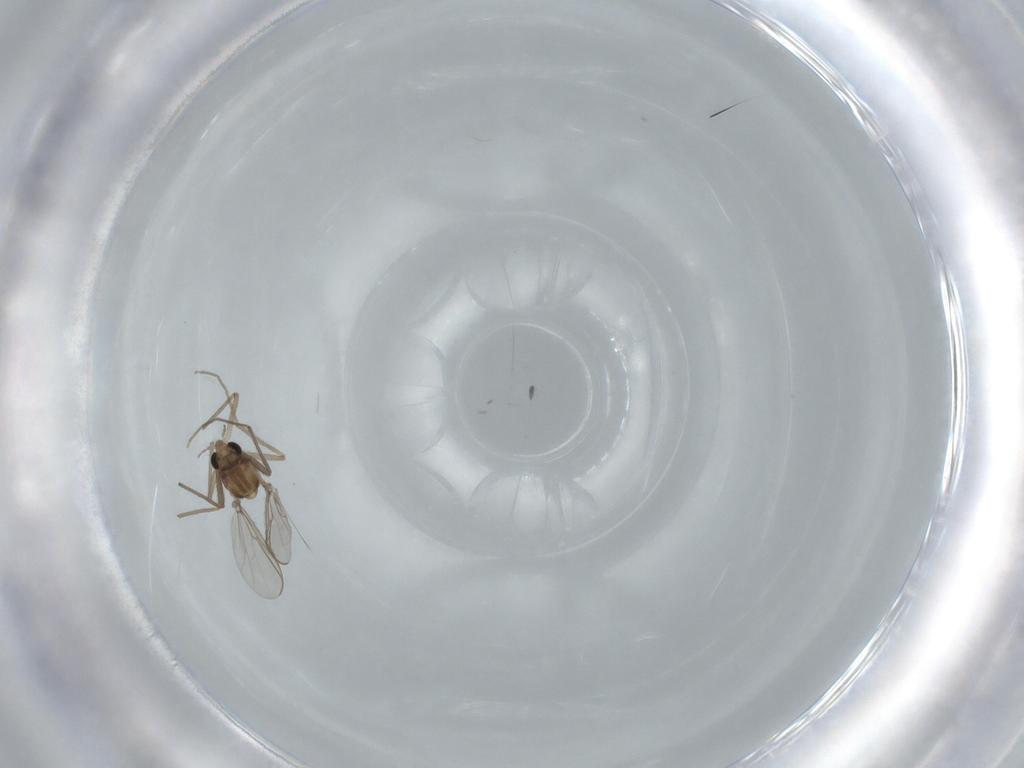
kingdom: Animalia
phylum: Arthropoda
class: Insecta
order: Diptera
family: Chironomidae
